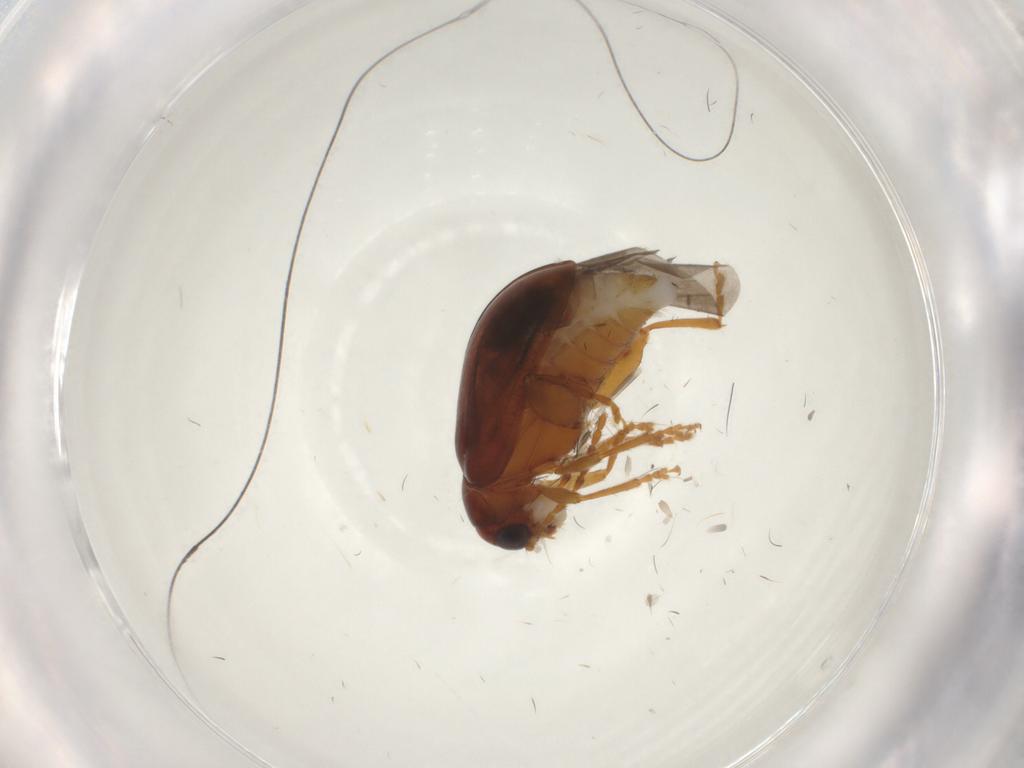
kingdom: Animalia
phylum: Arthropoda
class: Insecta
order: Coleoptera
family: Chrysomelidae
